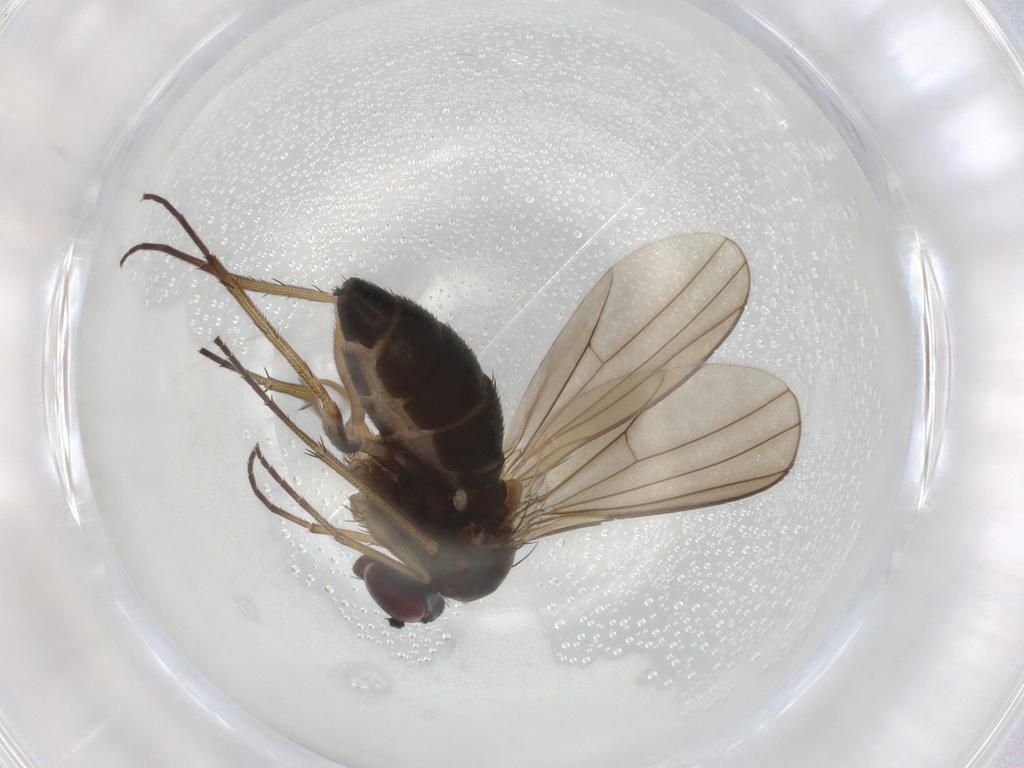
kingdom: Animalia
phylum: Arthropoda
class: Insecta
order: Diptera
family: Dolichopodidae
